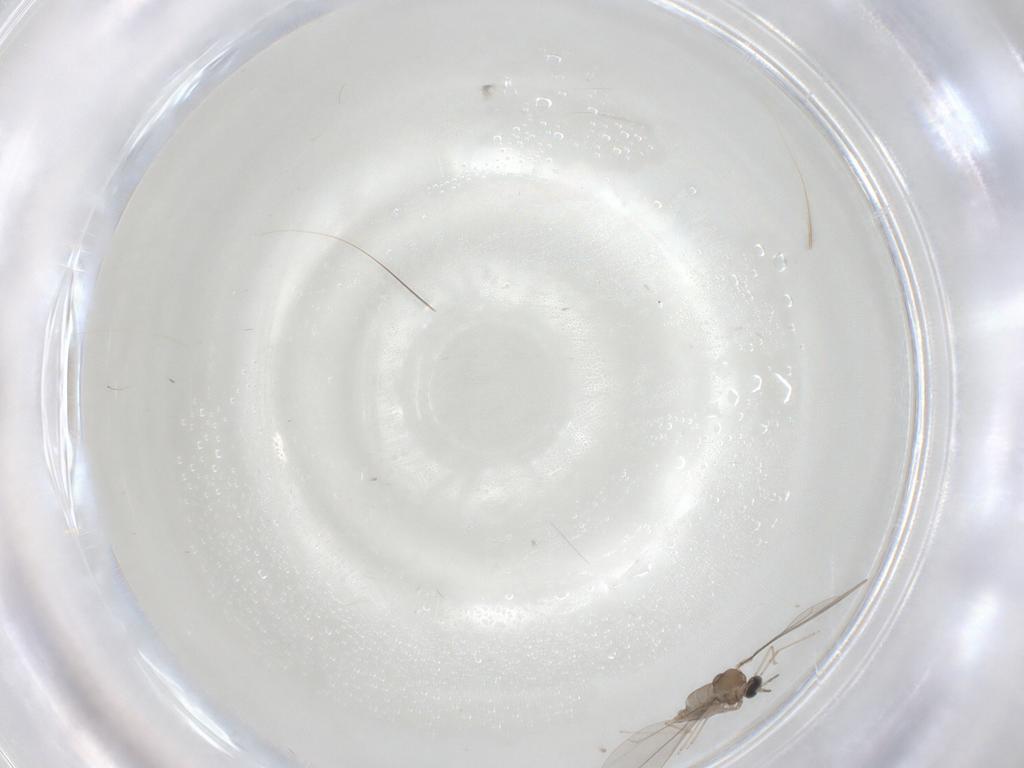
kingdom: Animalia
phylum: Arthropoda
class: Insecta
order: Diptera
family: Cecidomyiidae
